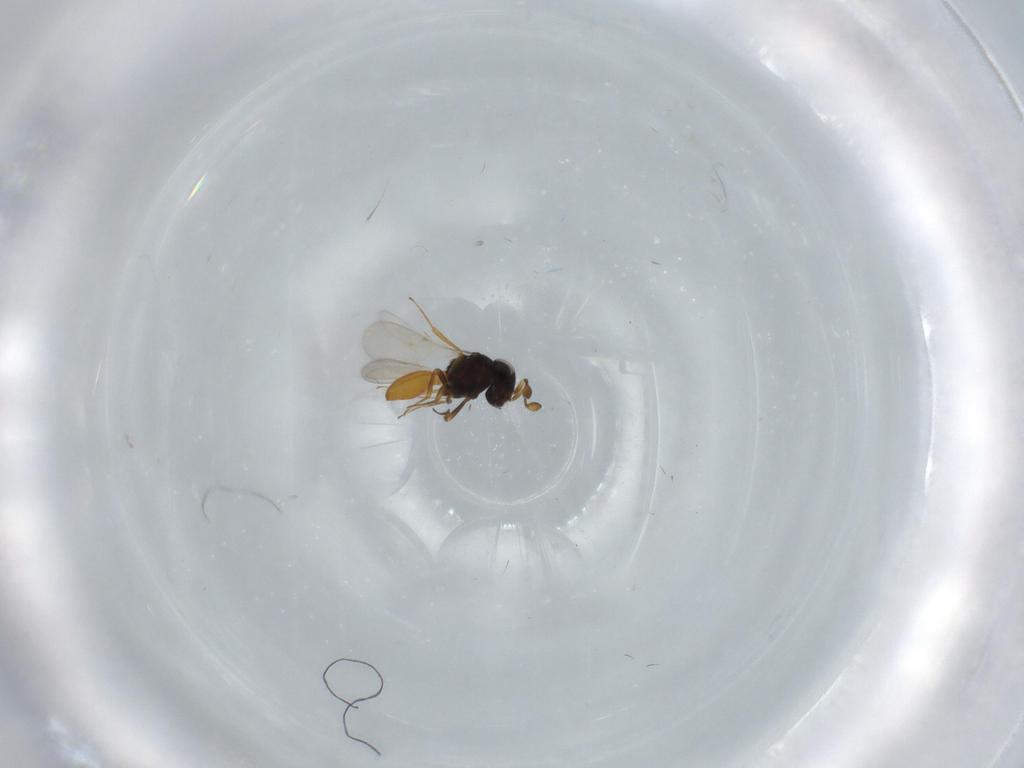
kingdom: Animalia
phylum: Arthropoda
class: Insecta
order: Hymenoptera
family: Scelionidae
